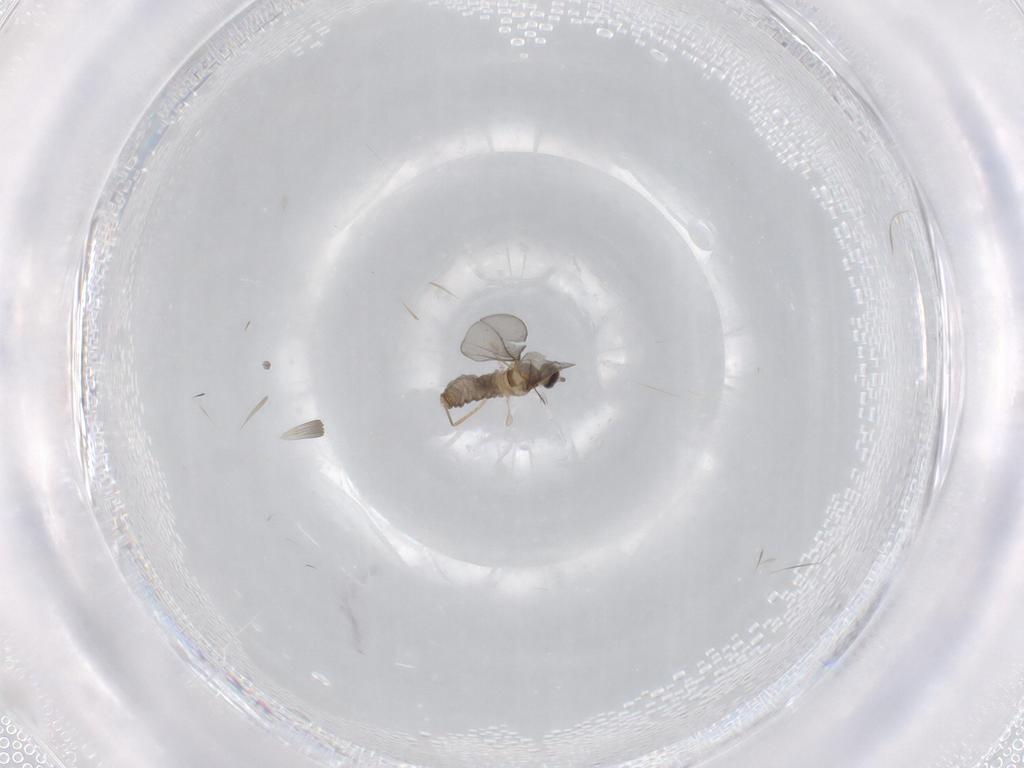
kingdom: Animalia
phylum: Arthropoda
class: Insecta
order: Diptera
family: Cecidomyiidae
